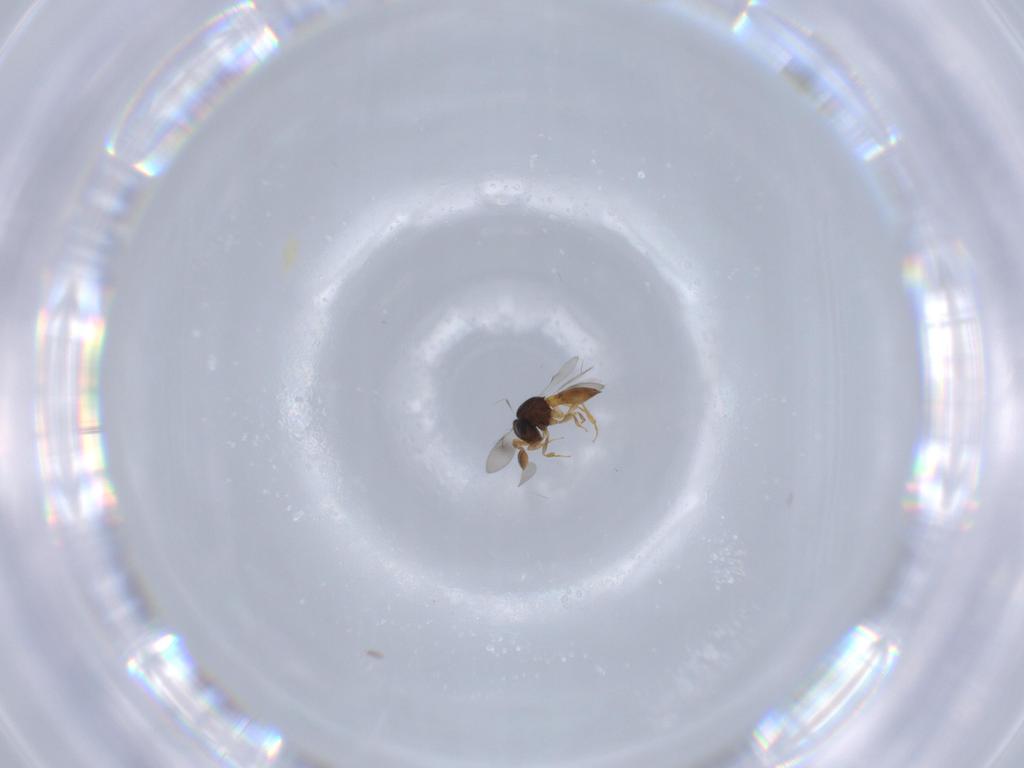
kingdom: Animalia
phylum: Arthropoda
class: Insecta
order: Hymenoptera
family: Scelionidae
